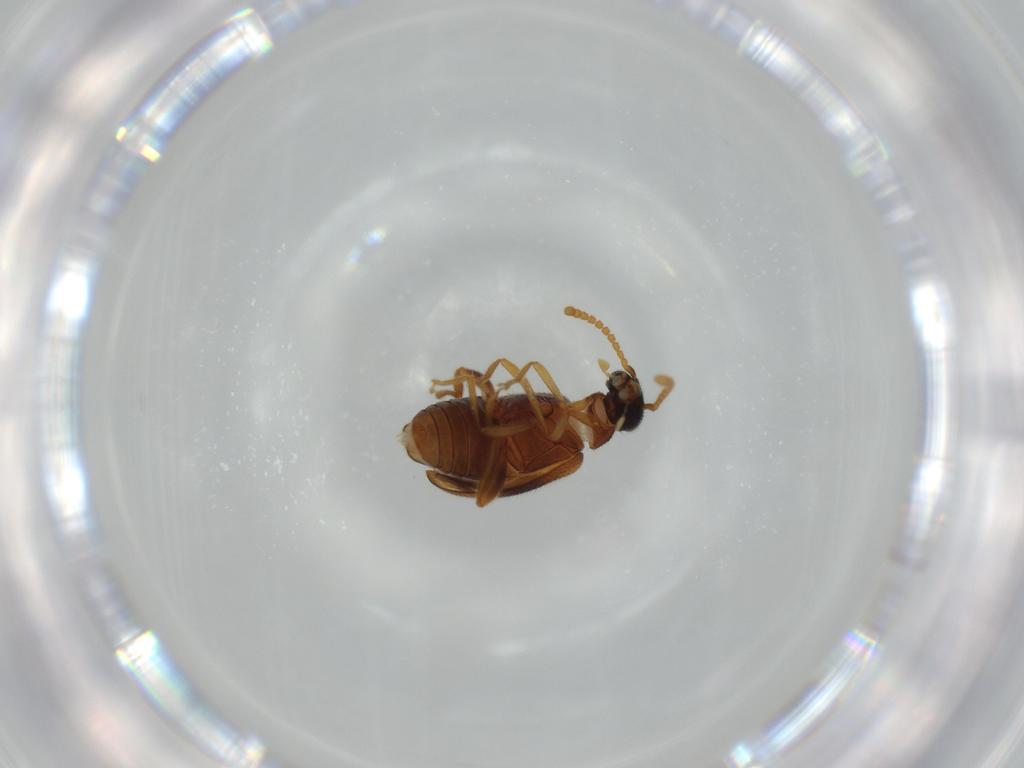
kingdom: Animalia
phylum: Arthropoda
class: Insecta
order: Coleoptera
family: Aderidae
